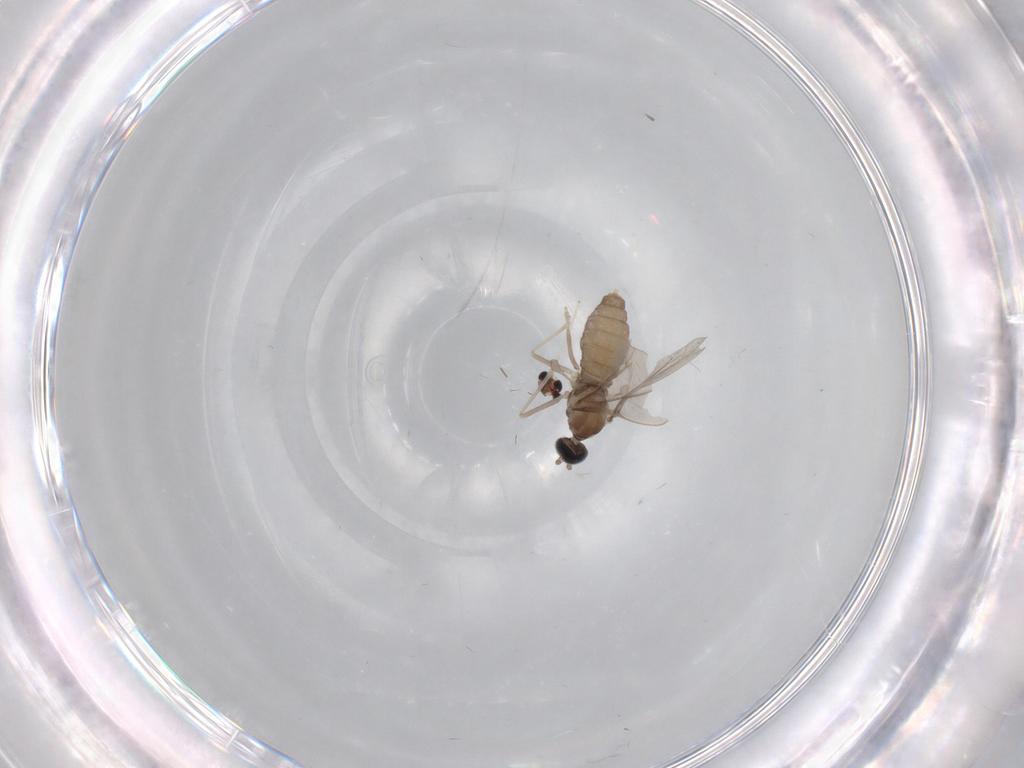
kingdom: Animalia
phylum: Arthropoda
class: Insecta
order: Diptera
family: Cecidomyiidae
